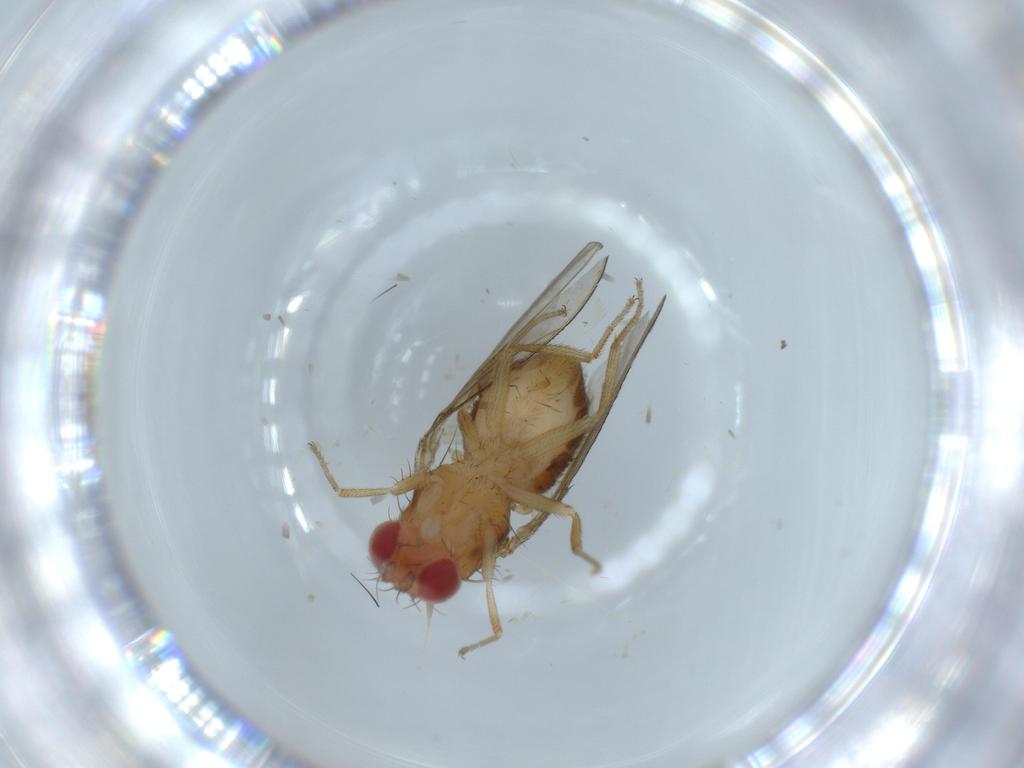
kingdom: Animalia
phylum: Arthropoda
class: Insecta
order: Diptera
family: Drosophilidae
